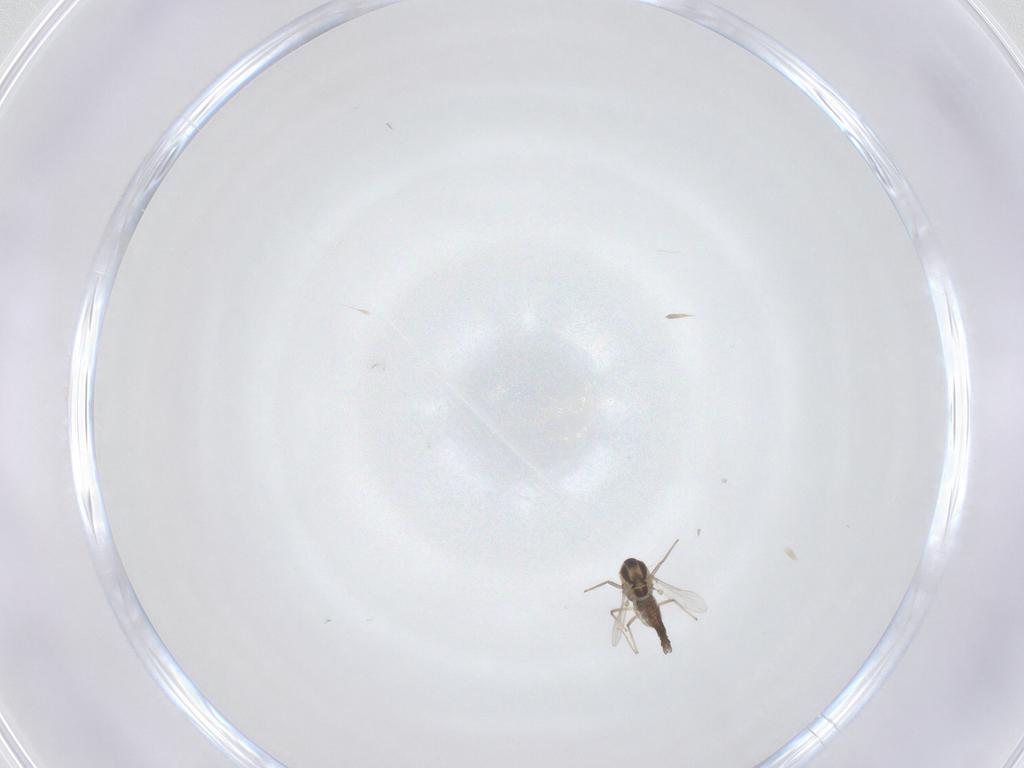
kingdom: Animalia
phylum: Arthropoda
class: Insecta
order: Diptera
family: Chironomidae
